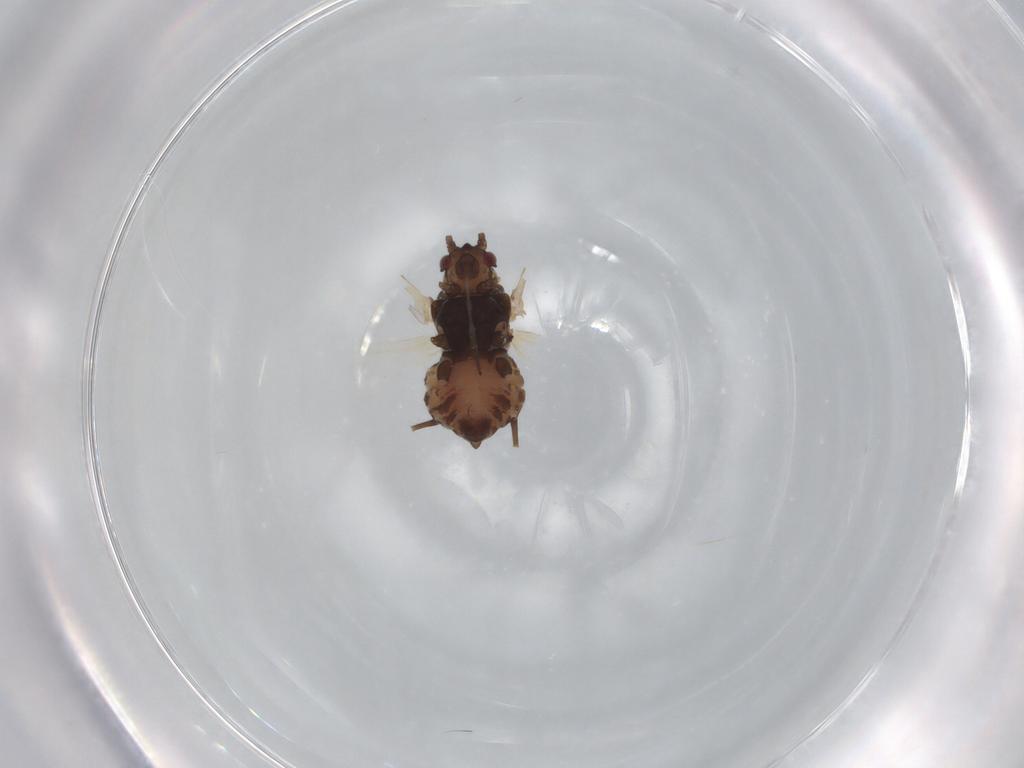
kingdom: Animalia
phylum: Arthropoda
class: Insecta
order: Hemiptera
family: Aphididae
